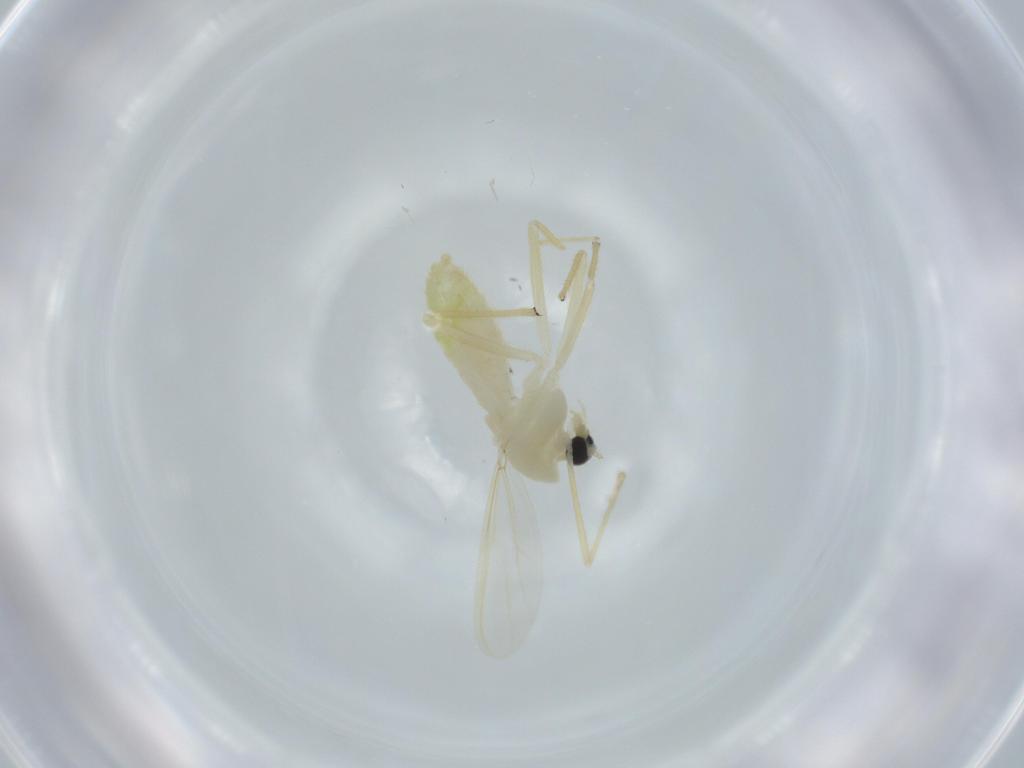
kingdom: Animalia
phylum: Arthropoda
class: Insecta
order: Diptera
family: Chironomidae
